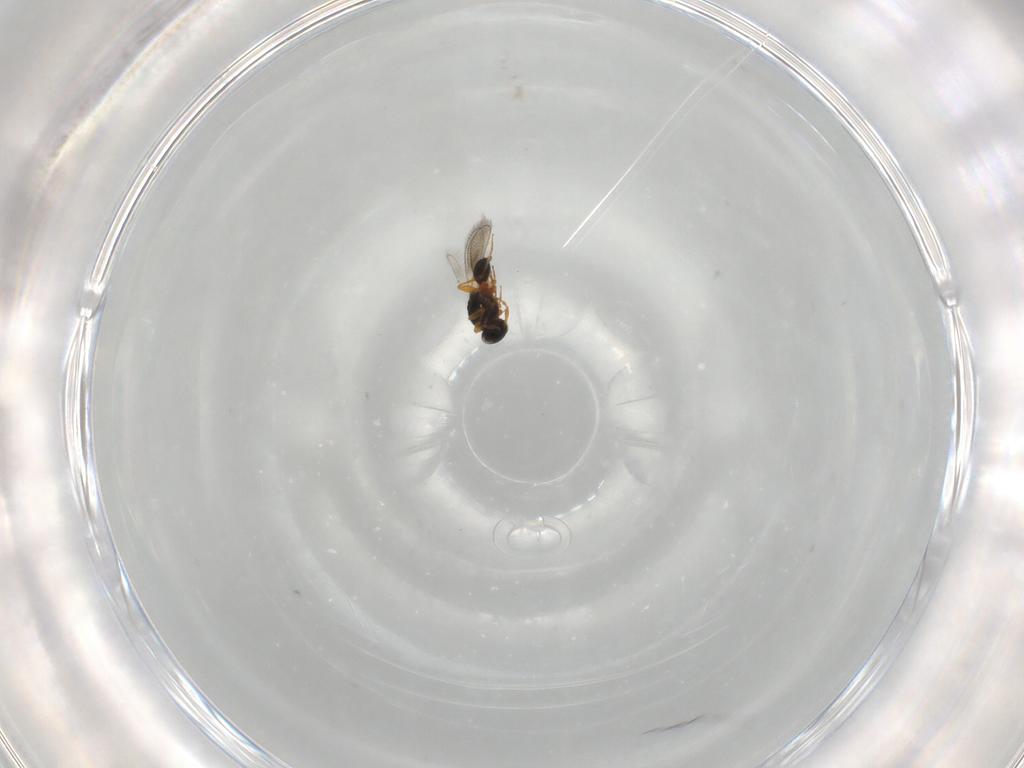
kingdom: Animalia
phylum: Arthropoda
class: Insecta
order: Hymenoptera
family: Platygastridae
